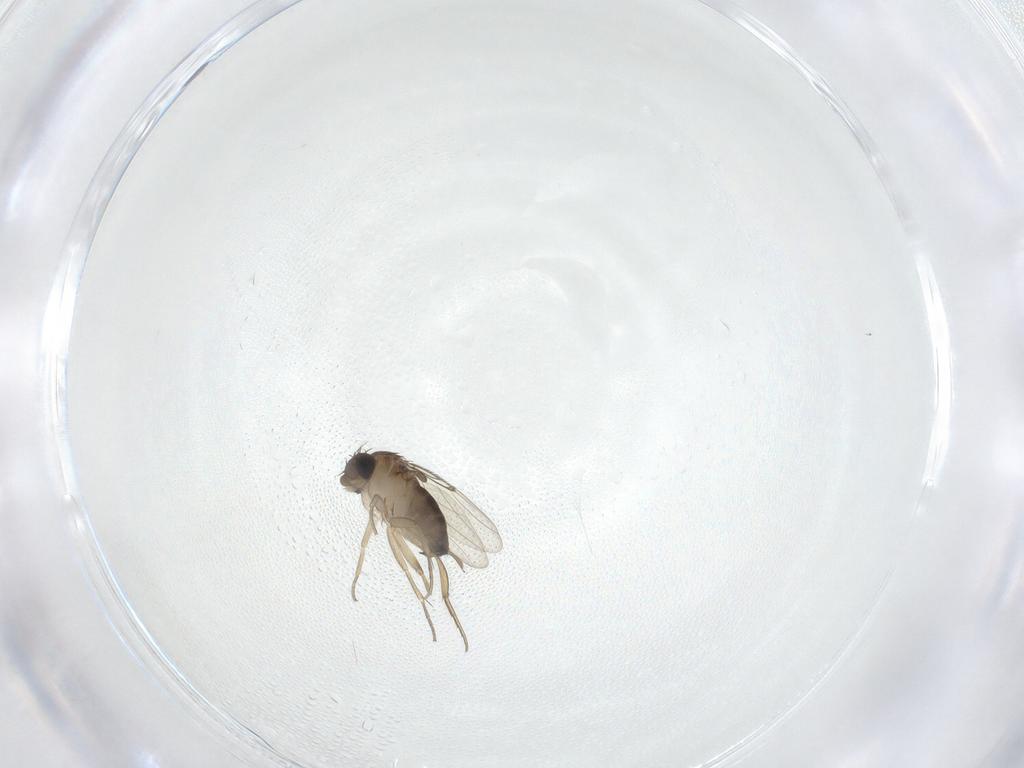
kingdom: Animalia
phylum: Arthropoda
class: Insecta
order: Diptera
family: Phoridae
